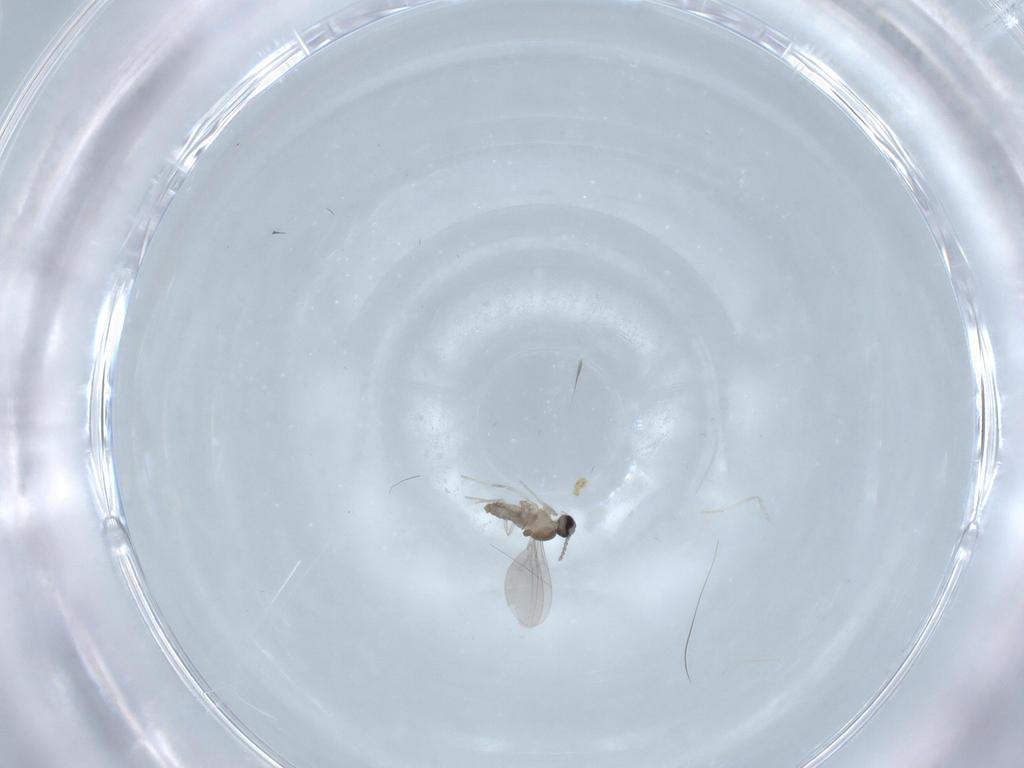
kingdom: Animalia
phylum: Arthropoda
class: Insecta
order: Diptera
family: Cecidomyiidae
